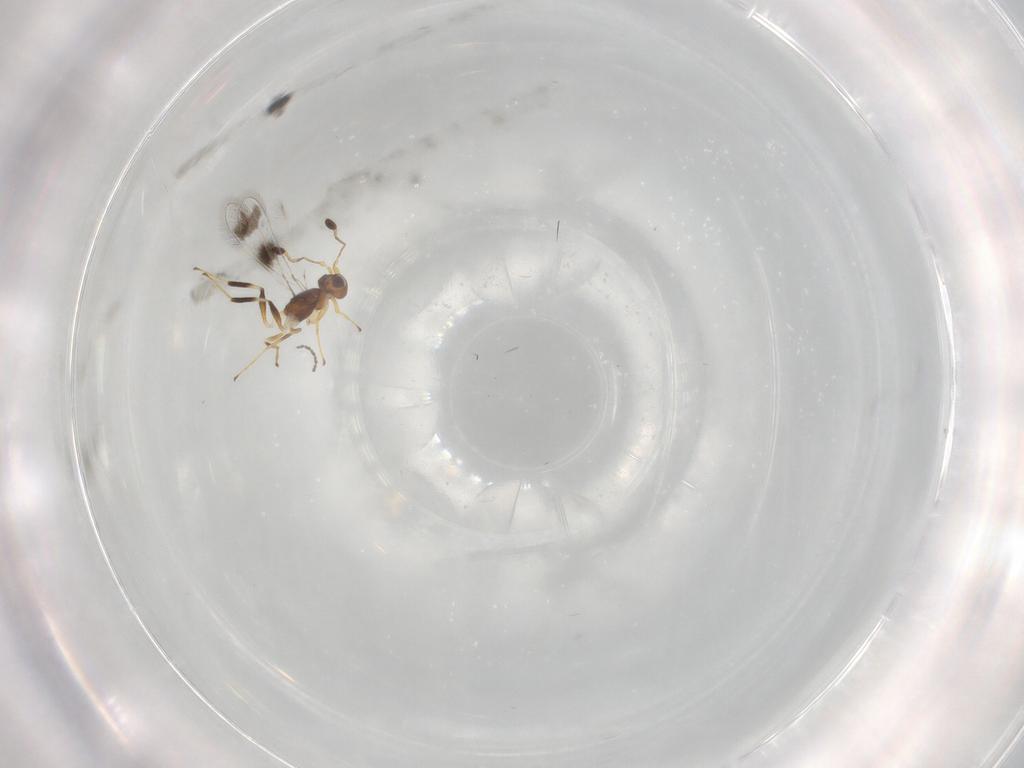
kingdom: Animalia
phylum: Arthropoda
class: Insecta
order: Hymenoptera
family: Mymaridae
